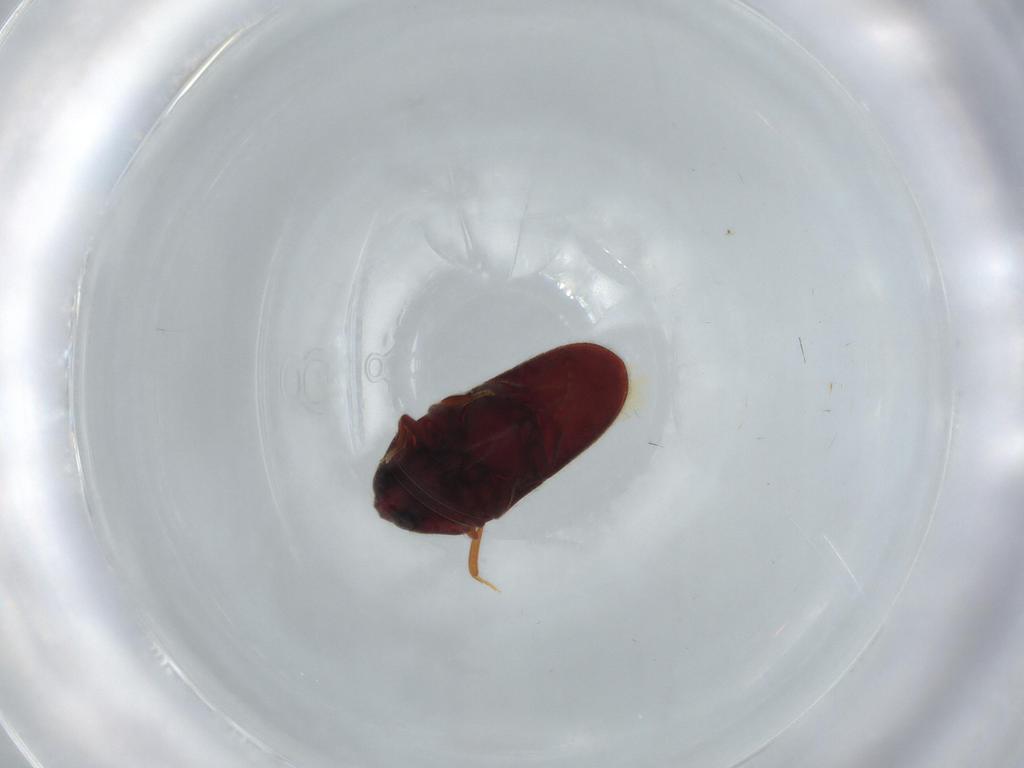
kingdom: Animalia
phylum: Arthropoda
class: Insecta
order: Coleoptera
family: Throscidae
